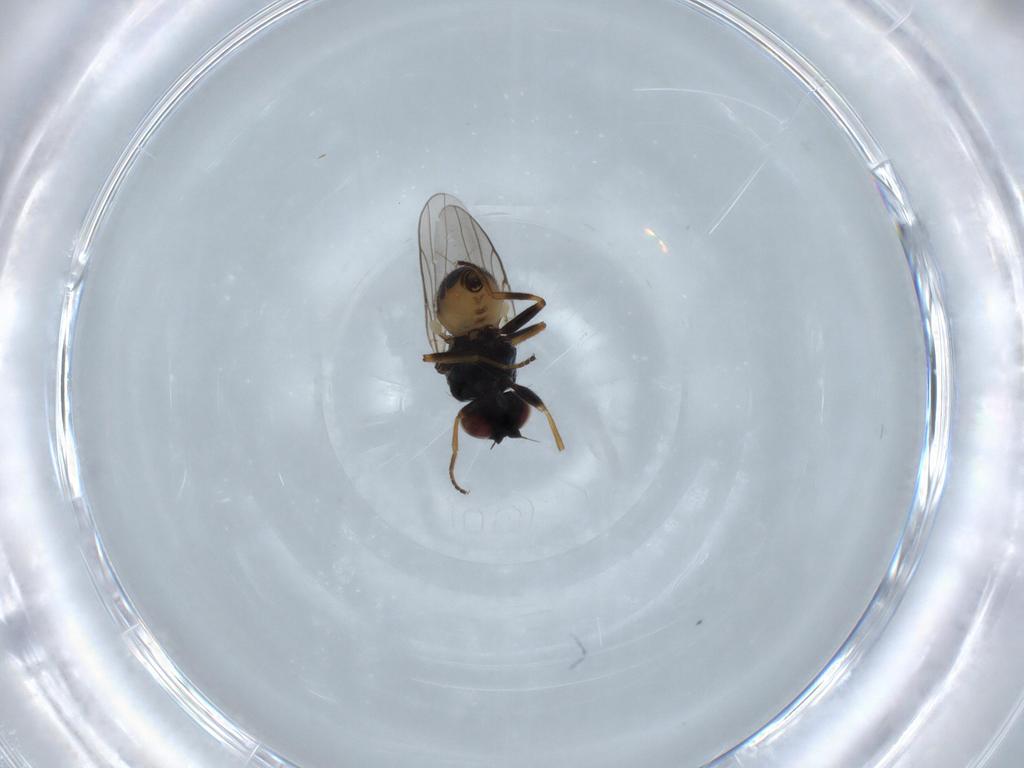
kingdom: Animalia
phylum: Arthropoda
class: Insecta
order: Diptera
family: Chloropidae
